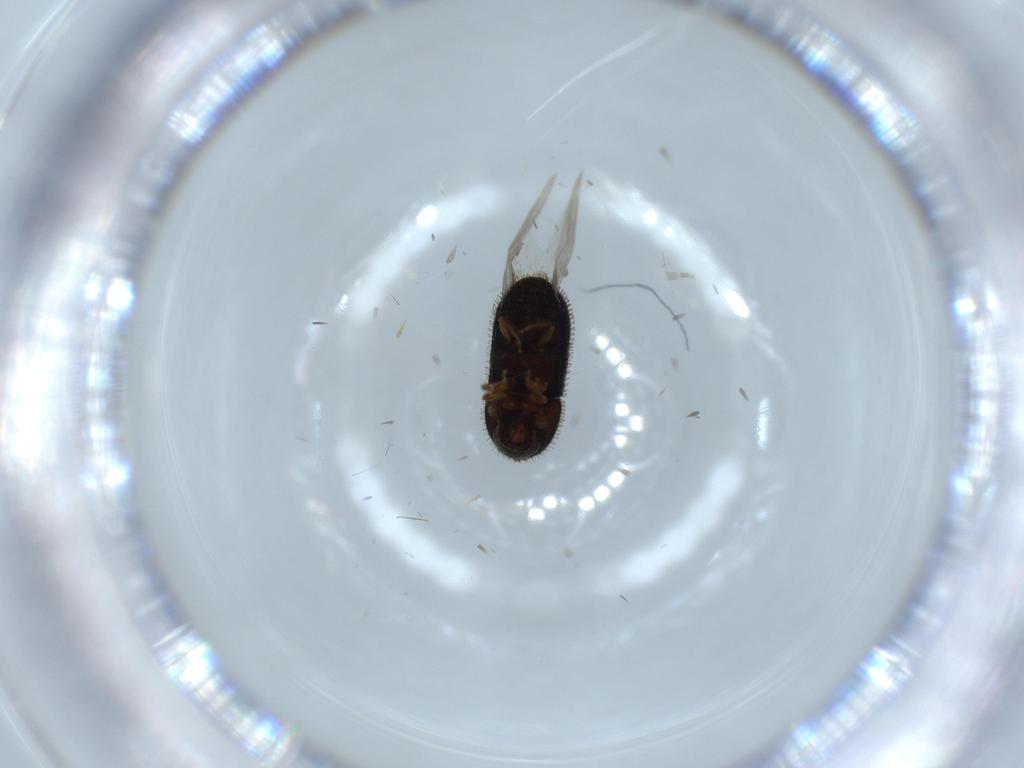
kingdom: Animalia
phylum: Arthropoda
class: Insecta
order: Coleoptera
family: Curculionidae
